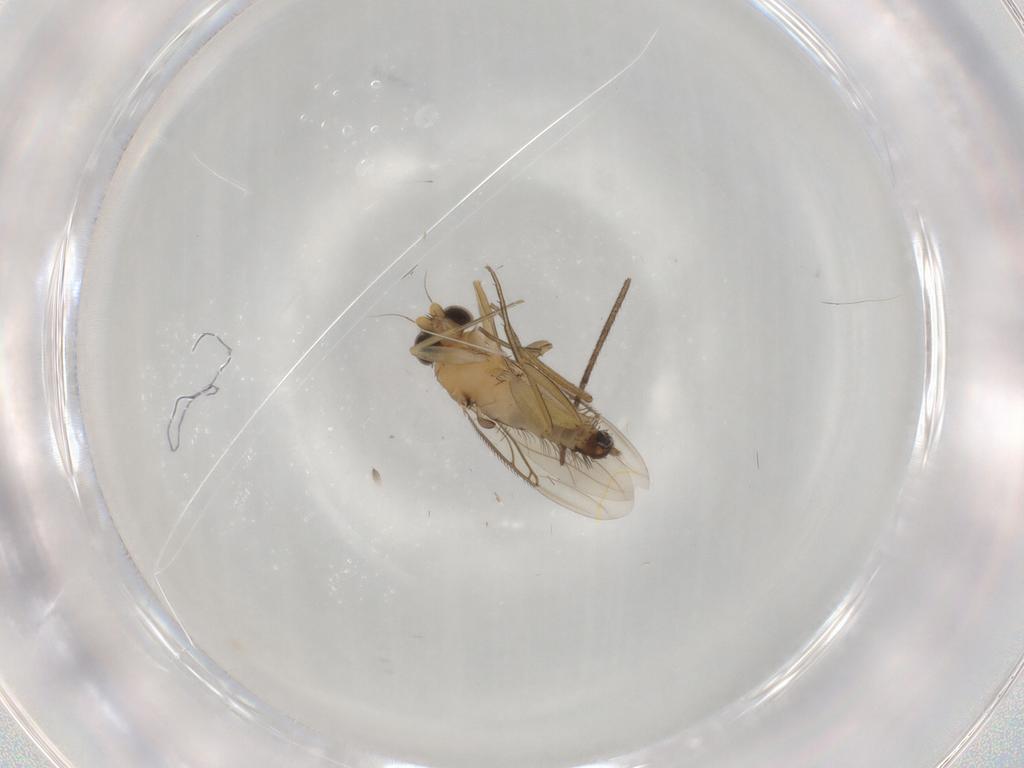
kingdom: Animalia
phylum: Arthropoda
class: Insecta
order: Diptera
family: Phoridae
